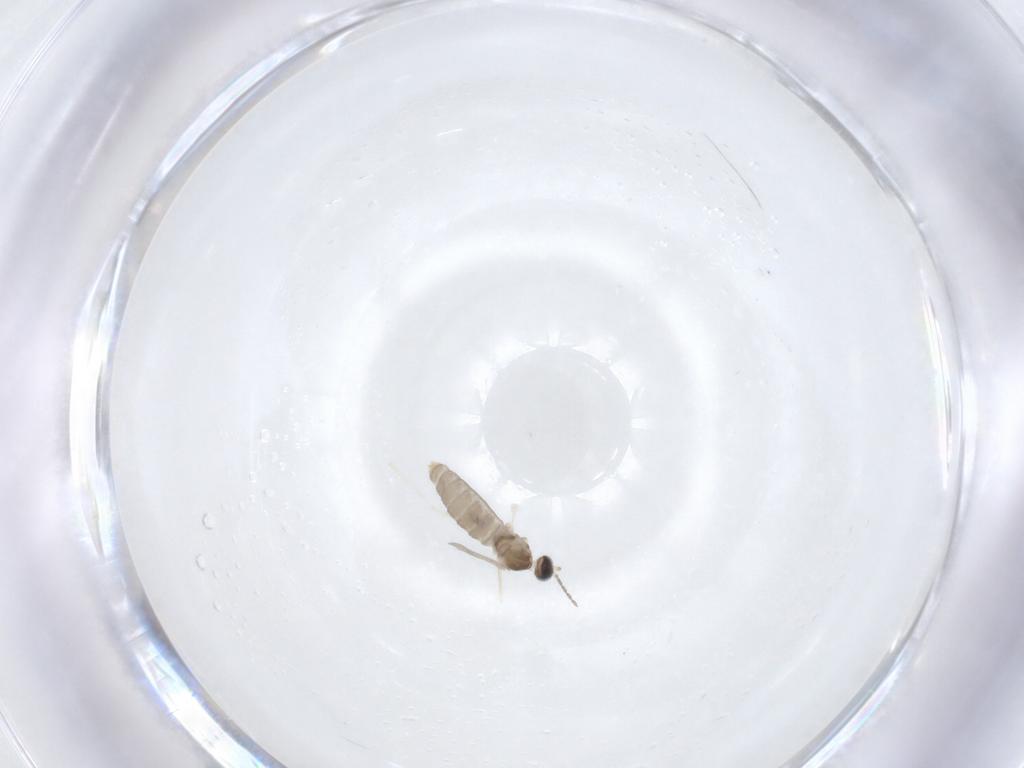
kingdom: Animalia
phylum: Arthropoda
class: Insecta
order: Diptera
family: Cecidomyiidae
